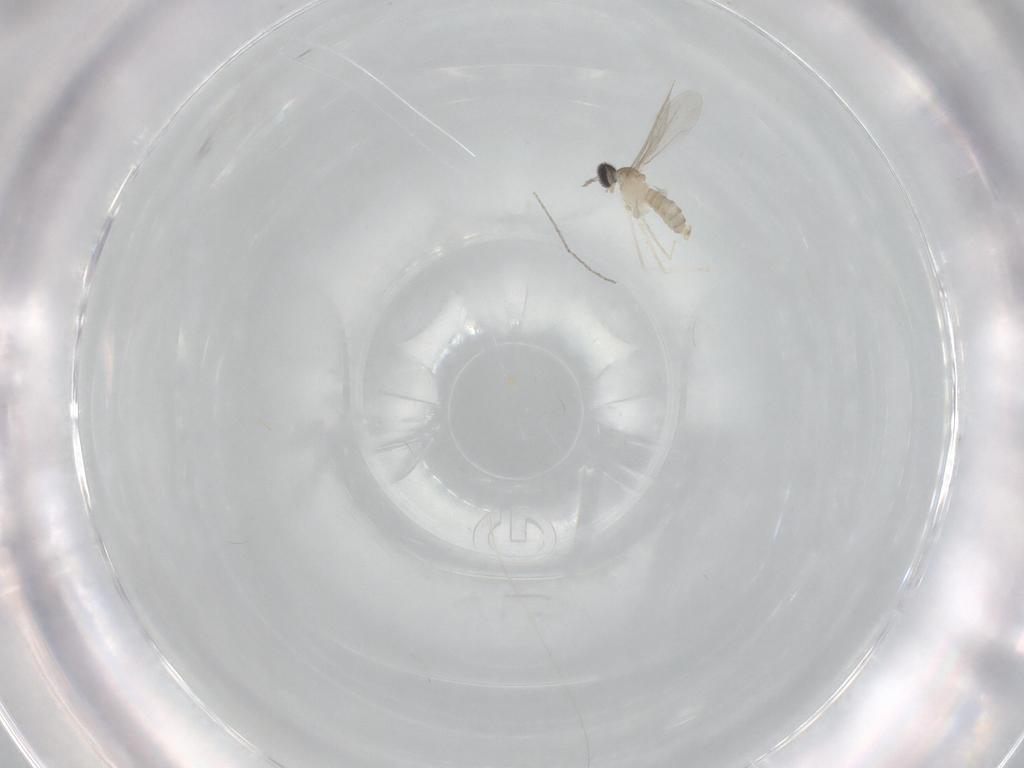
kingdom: Animalia
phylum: Arthropoda
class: Insecta
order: Diptera
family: Cecidomyiidae
